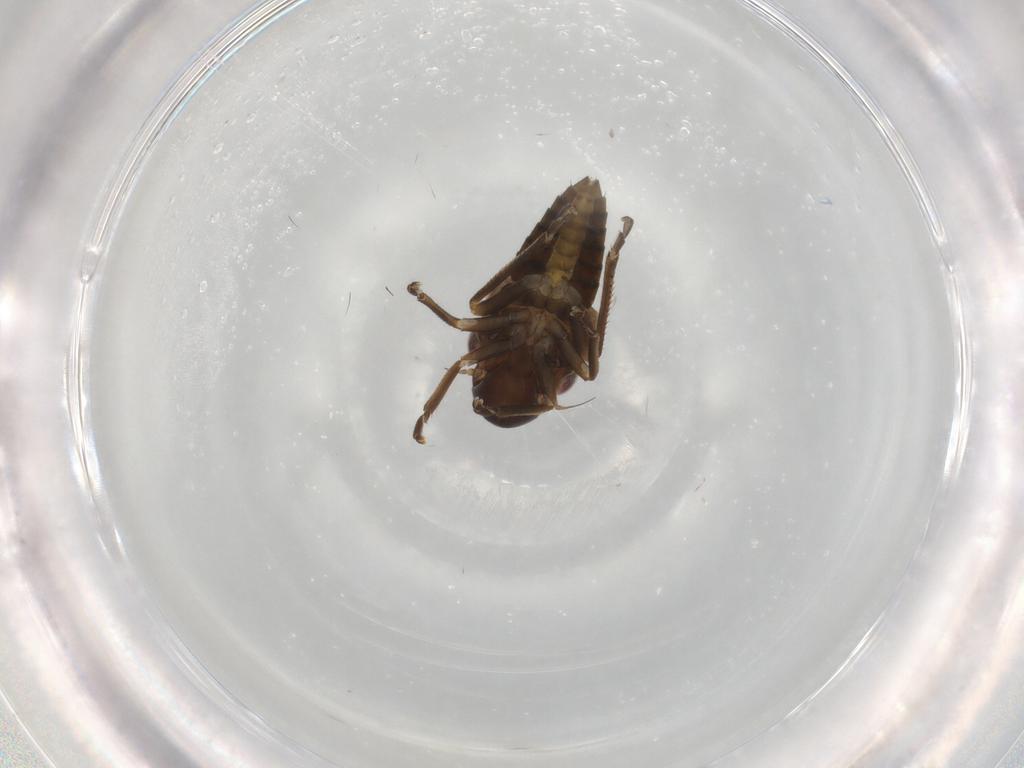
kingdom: Animalia
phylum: Arthropoda
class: Insecta
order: Hemiptera
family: Cicadellidae
